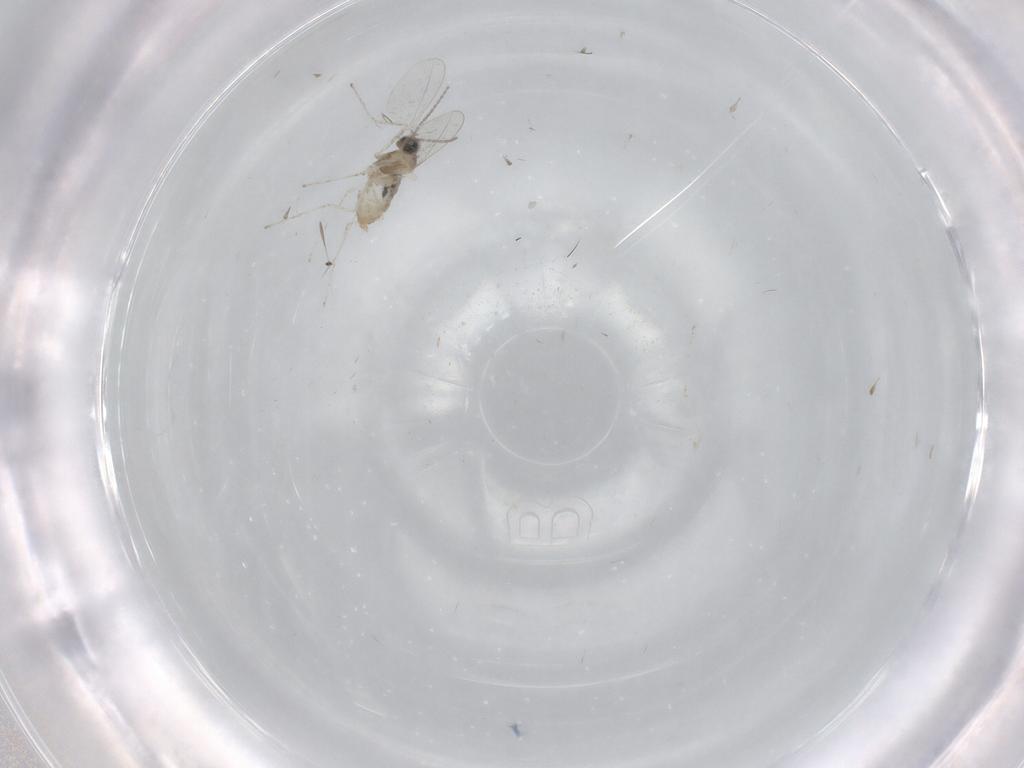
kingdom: Animalia
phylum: Arthropoda
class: Insecta
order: Diptera
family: Cecidomyiidae
